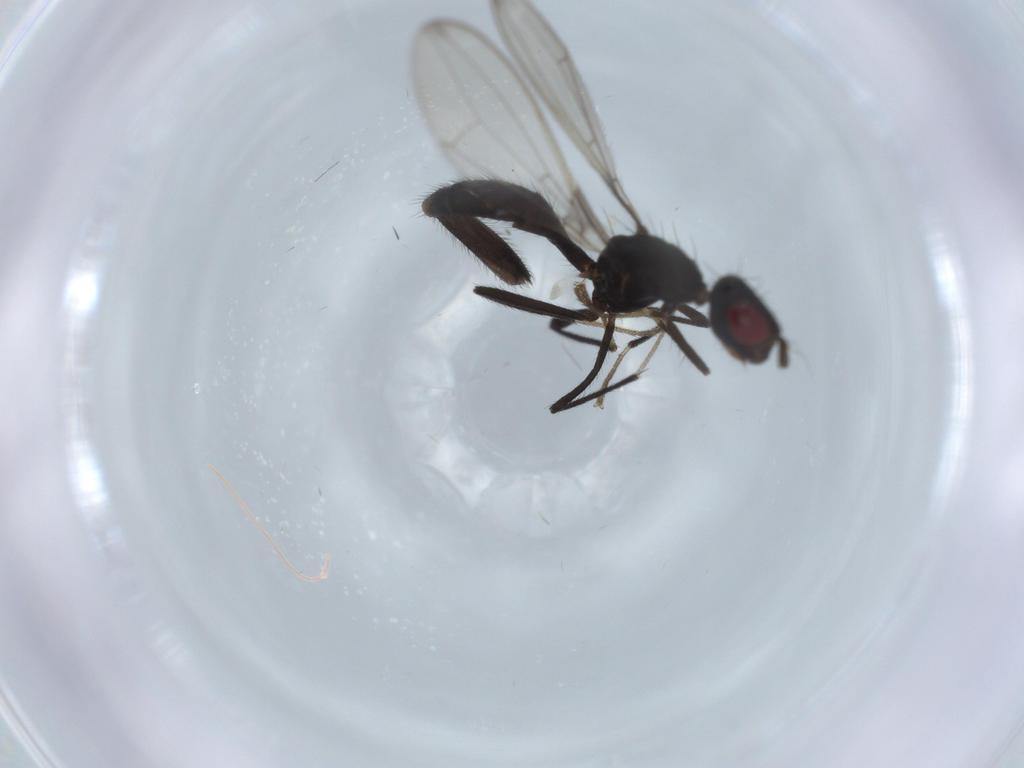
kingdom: Animalia
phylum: Arthropoda
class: Insecta
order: Diptera
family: Richardiidae
